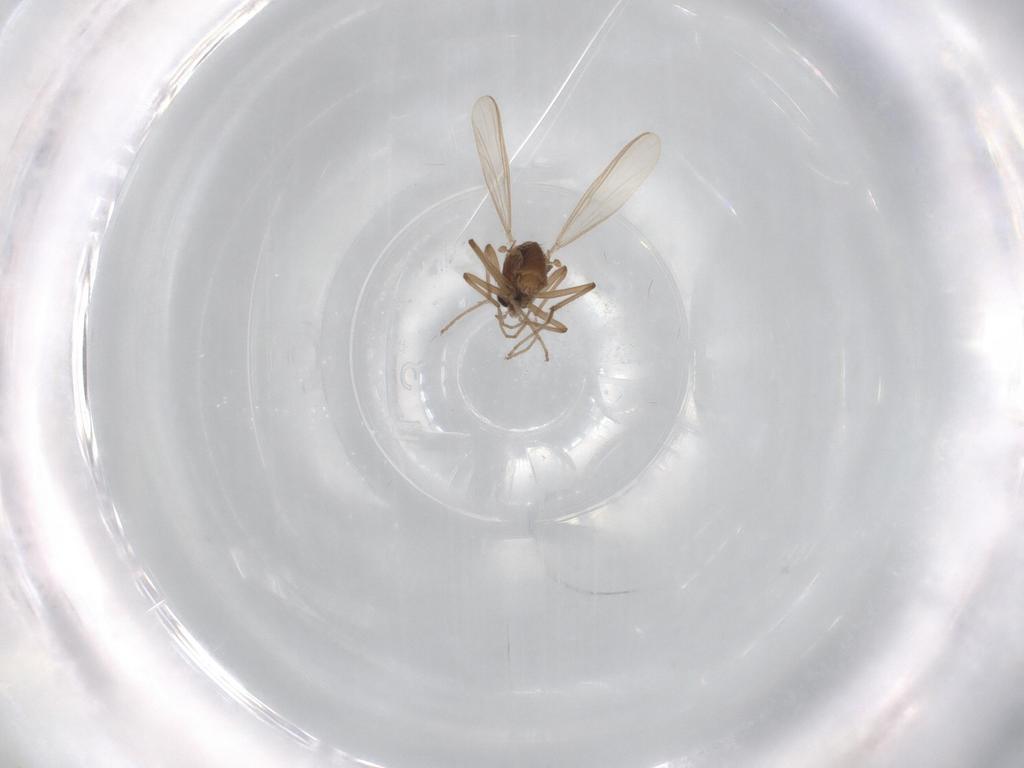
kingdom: Animalia
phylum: Arthropoda
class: Insecta
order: Diptera
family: Chironomidae
